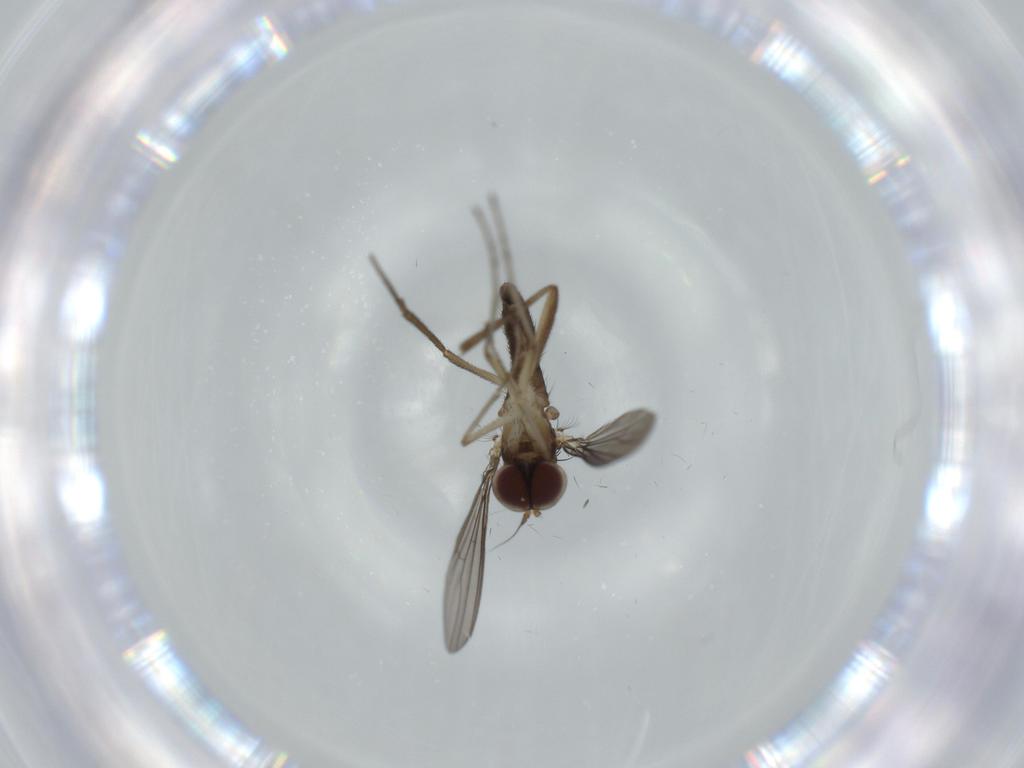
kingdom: Animalia
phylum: Arthropoda
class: Insecta
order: Diptera
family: Dolichopodidae
